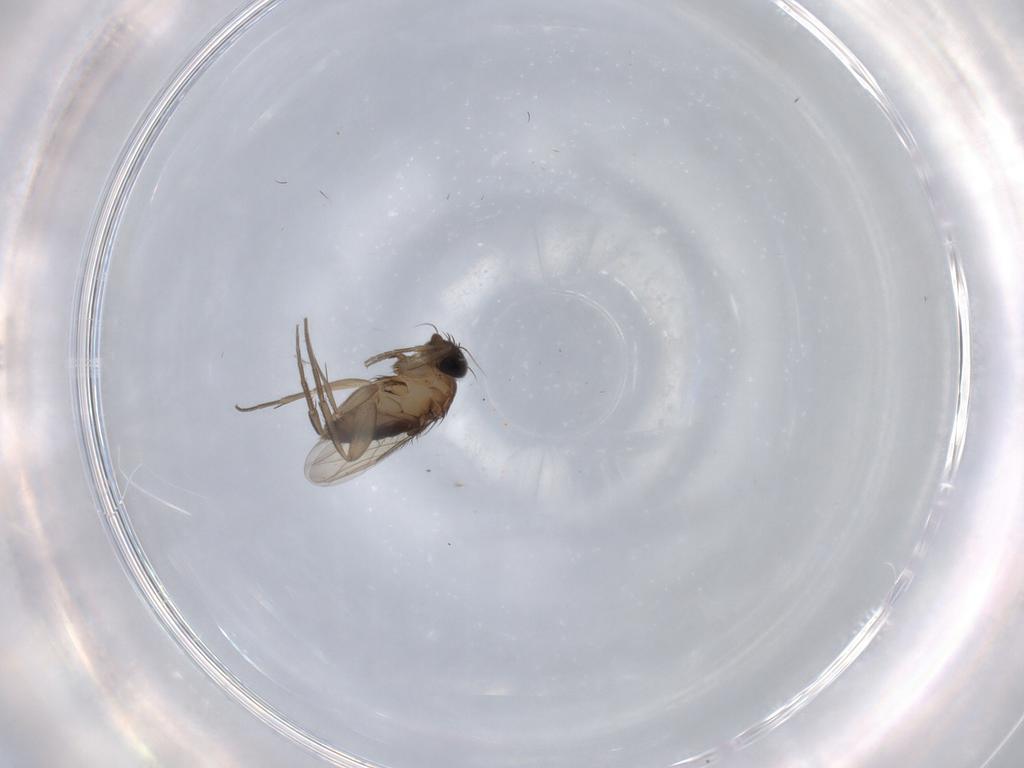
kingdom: Animalia
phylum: Arthropoda
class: Insecta
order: Diptera
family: Phoridae
